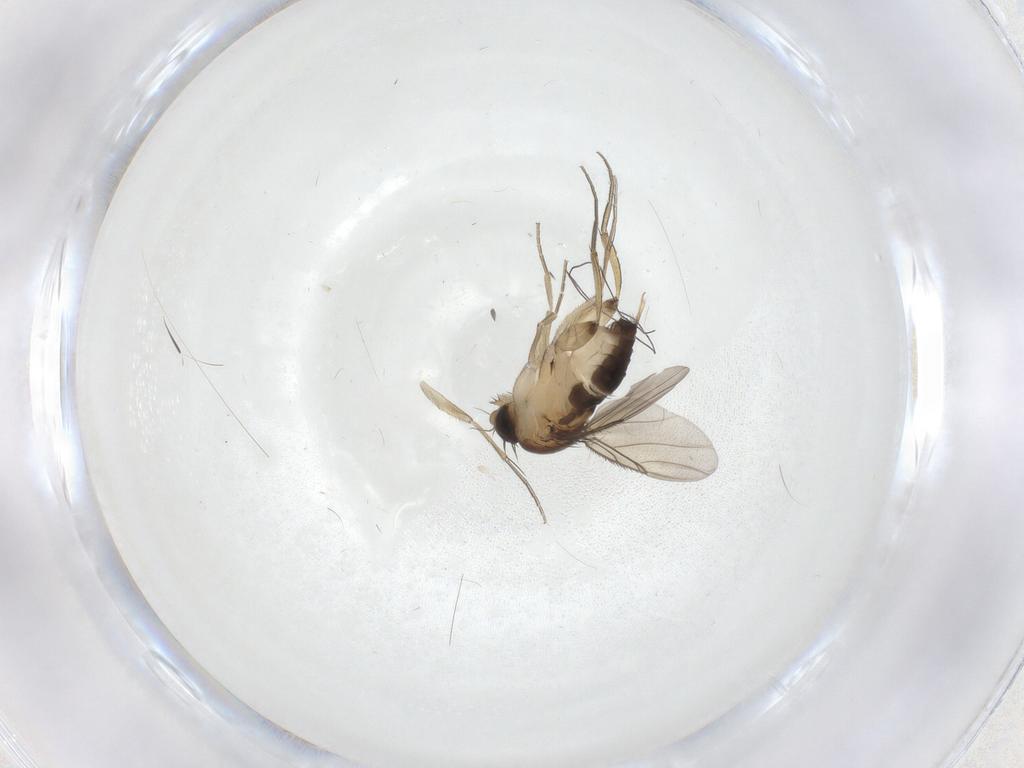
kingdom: Animalia
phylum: Arthropoda
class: Insecta
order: Diptera
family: Phoridae
